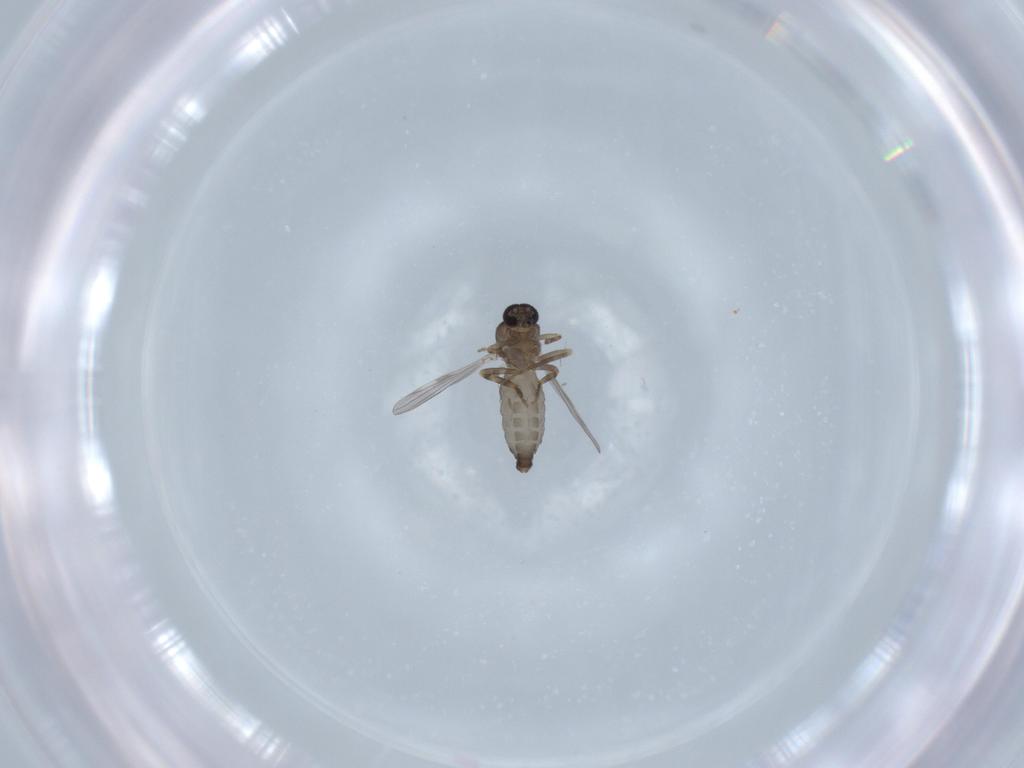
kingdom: Animalia
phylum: Arthropoda
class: Insecta
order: Diptera
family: Ceratopogonidae
